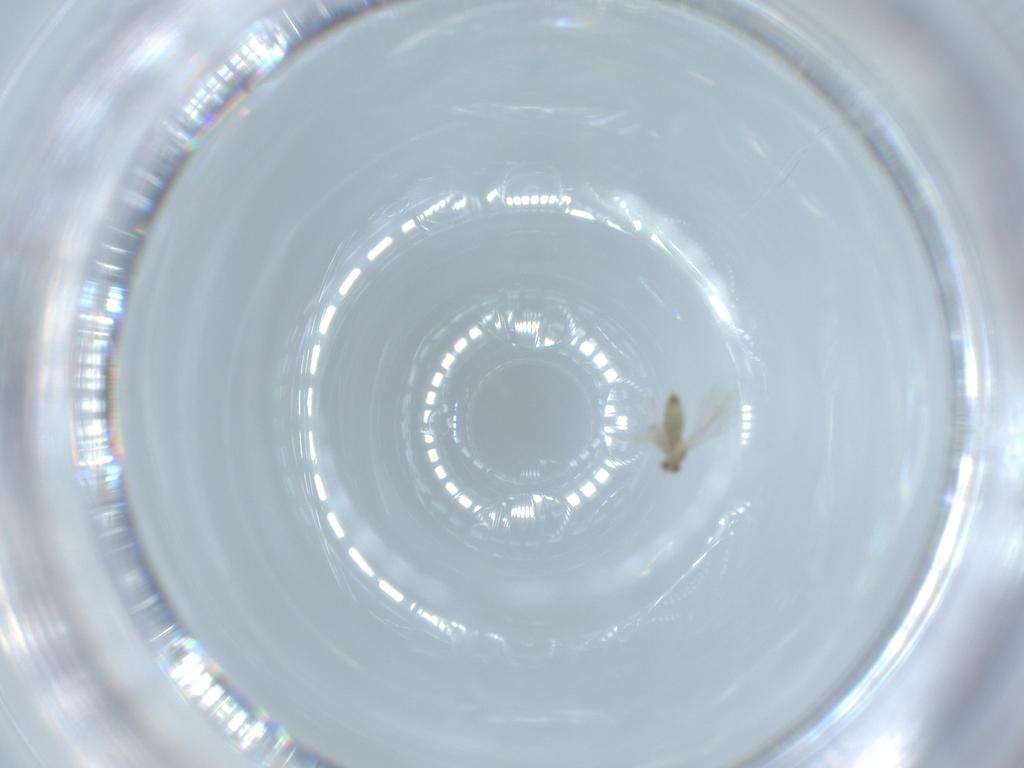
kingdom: Animalia
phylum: Arthropoda
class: Insecta
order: Diptera
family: Cecidomyiidae
